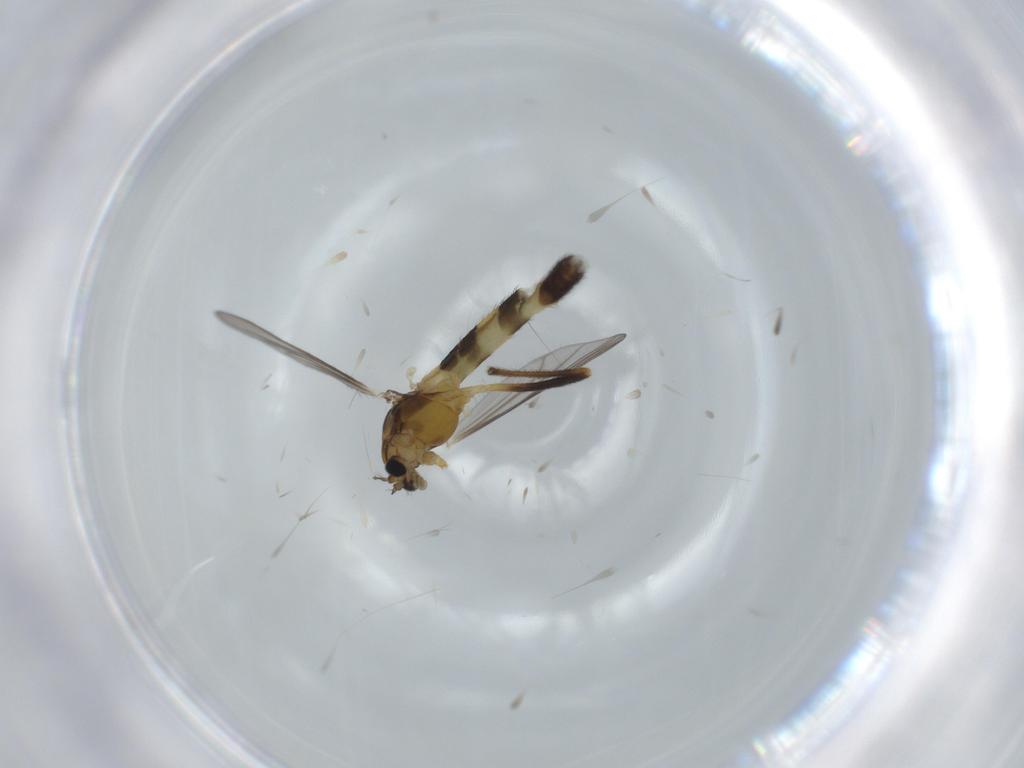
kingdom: Animalia
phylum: Arthropoda
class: Insecta
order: Diptera
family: Chironomidae
